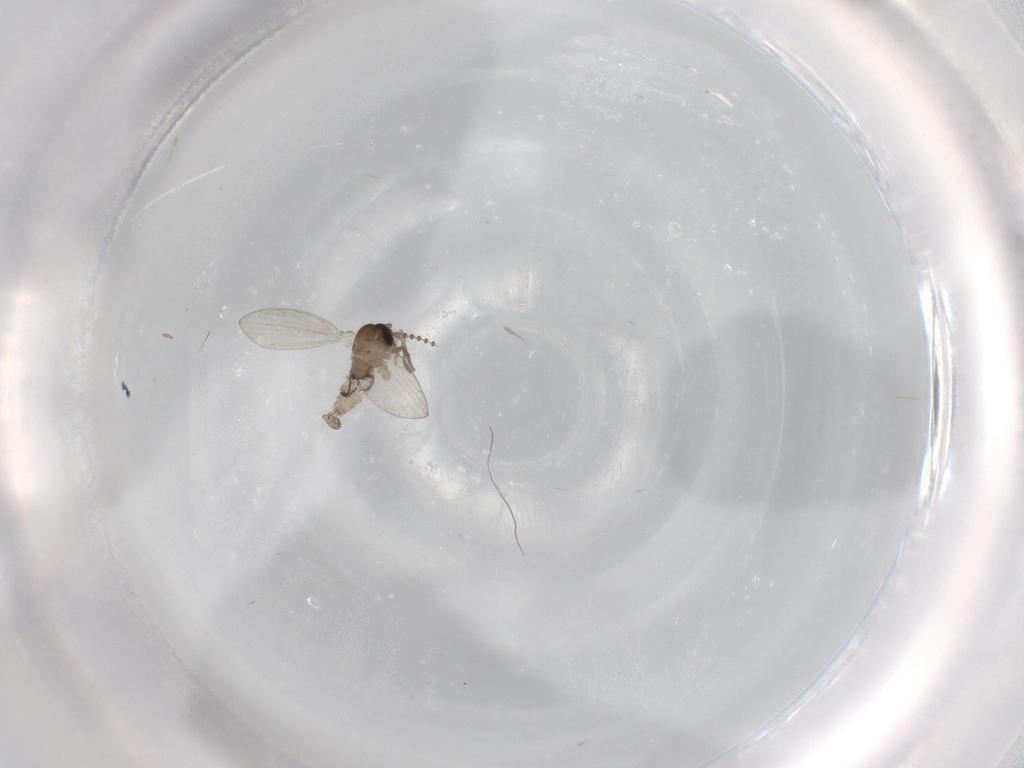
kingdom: Animalia
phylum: Arthropoda
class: Insecta
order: Diptera
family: Psychodidae
